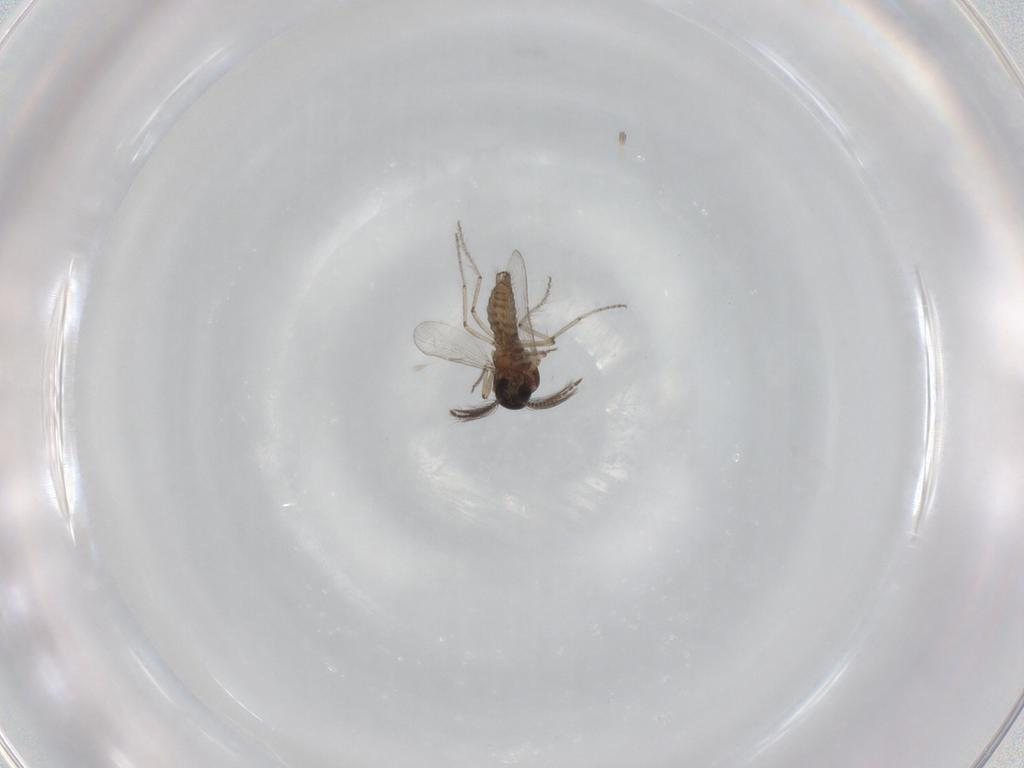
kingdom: Animalia
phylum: Arthropoda
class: Insecta
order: Diptera
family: Ceratopogonidae
